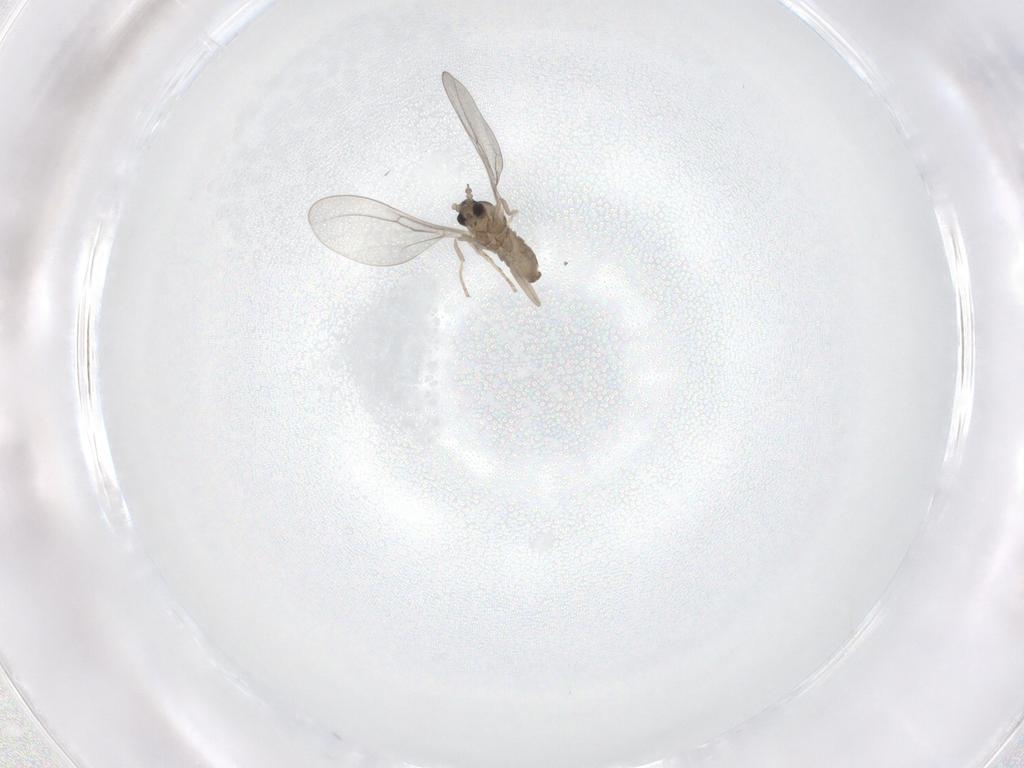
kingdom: Animalia
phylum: Arthropoda
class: Insecta
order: Diptera
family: Cecidomyiidae
